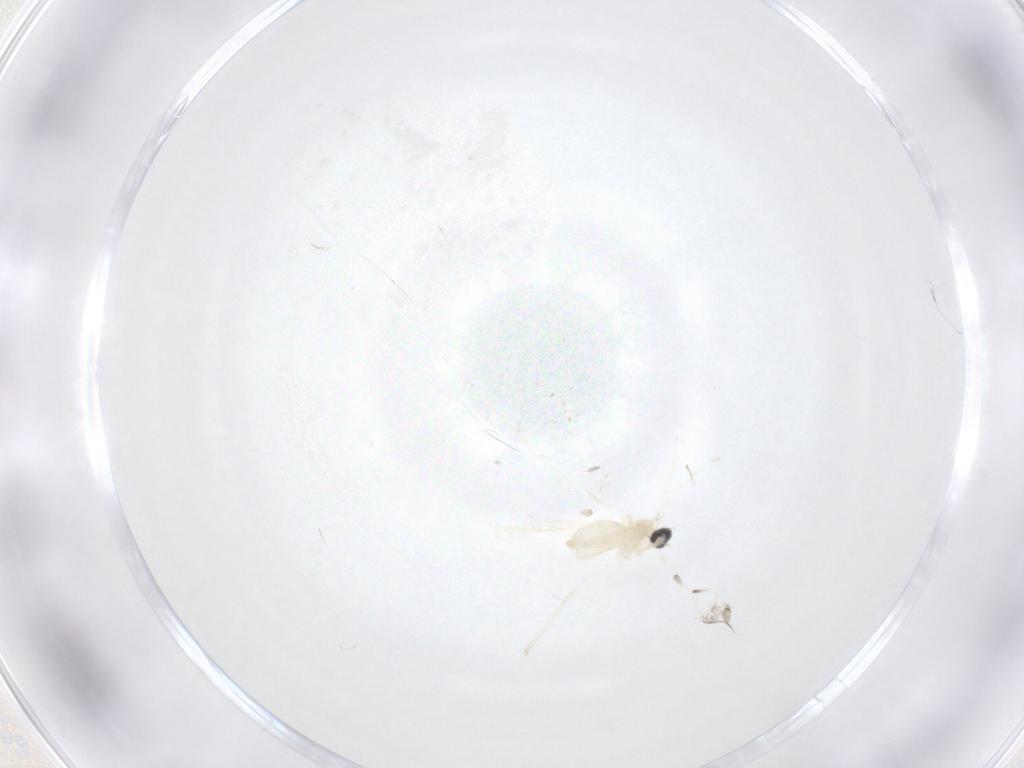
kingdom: Animalia
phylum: Arthropoda
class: Insecta
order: Diptera
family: Cecidomyiidae
